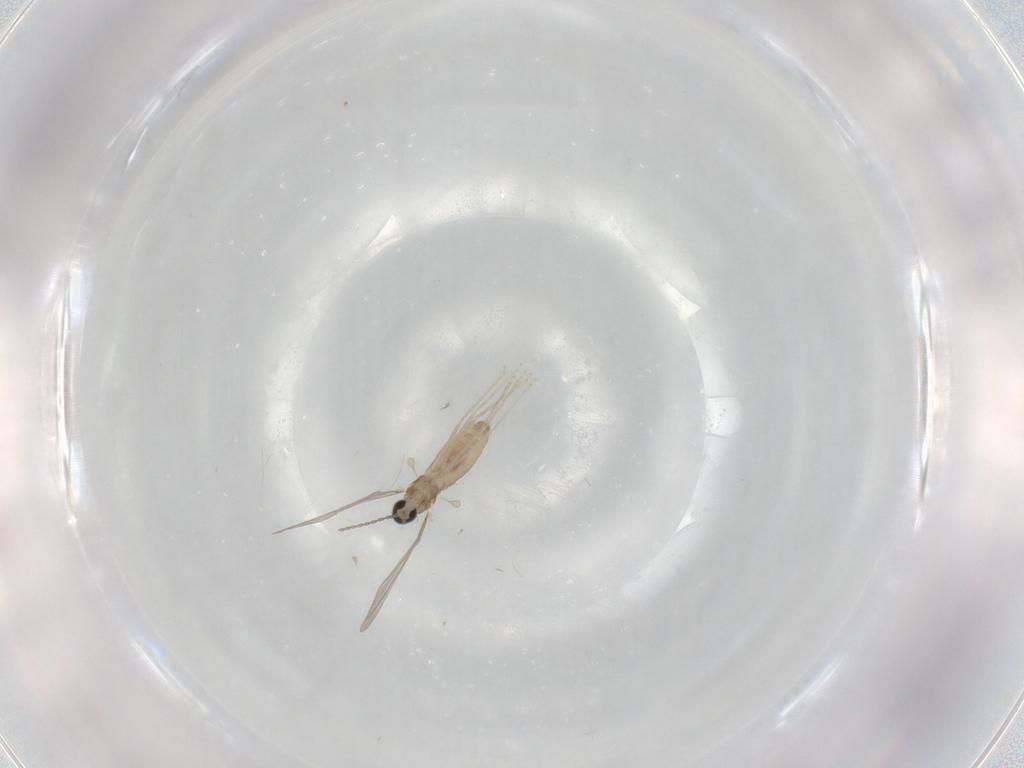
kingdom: Animalia
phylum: Arthropoda
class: Insecta
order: Diptera
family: Cecidomyiidae
